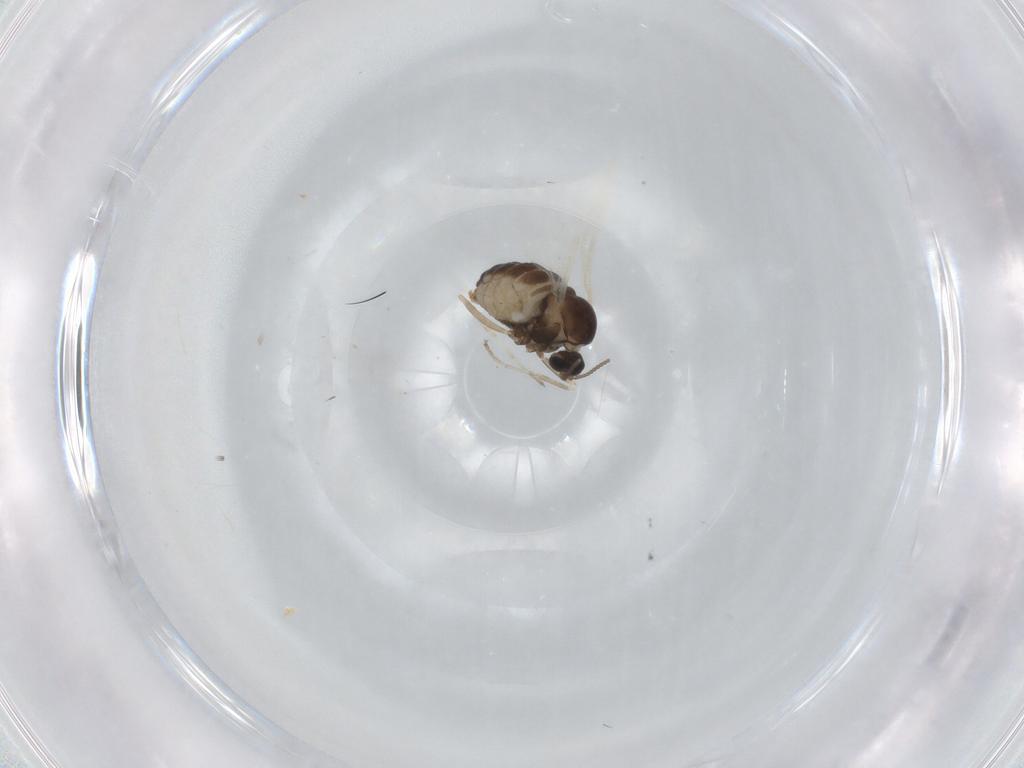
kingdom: Animalia
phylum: Arthropoda
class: Insecta
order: Diptera
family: Cecidomyiidae
